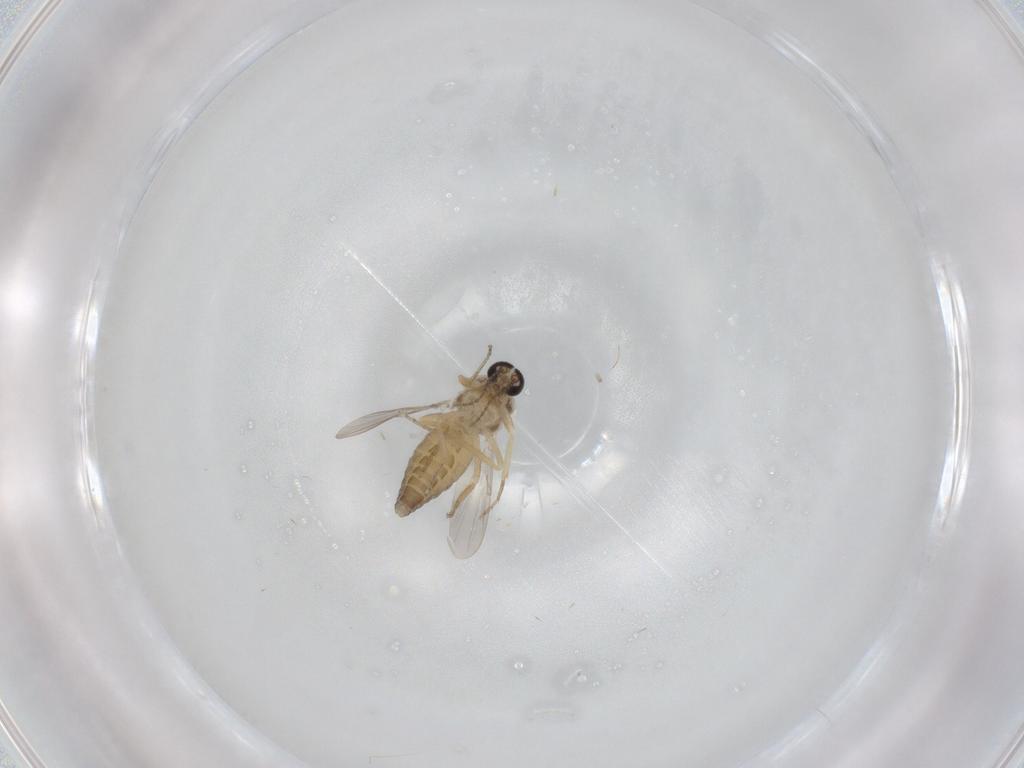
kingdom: Animalia
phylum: Arthropoda
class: Insecta
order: Diptera
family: Ceratopogonidae
